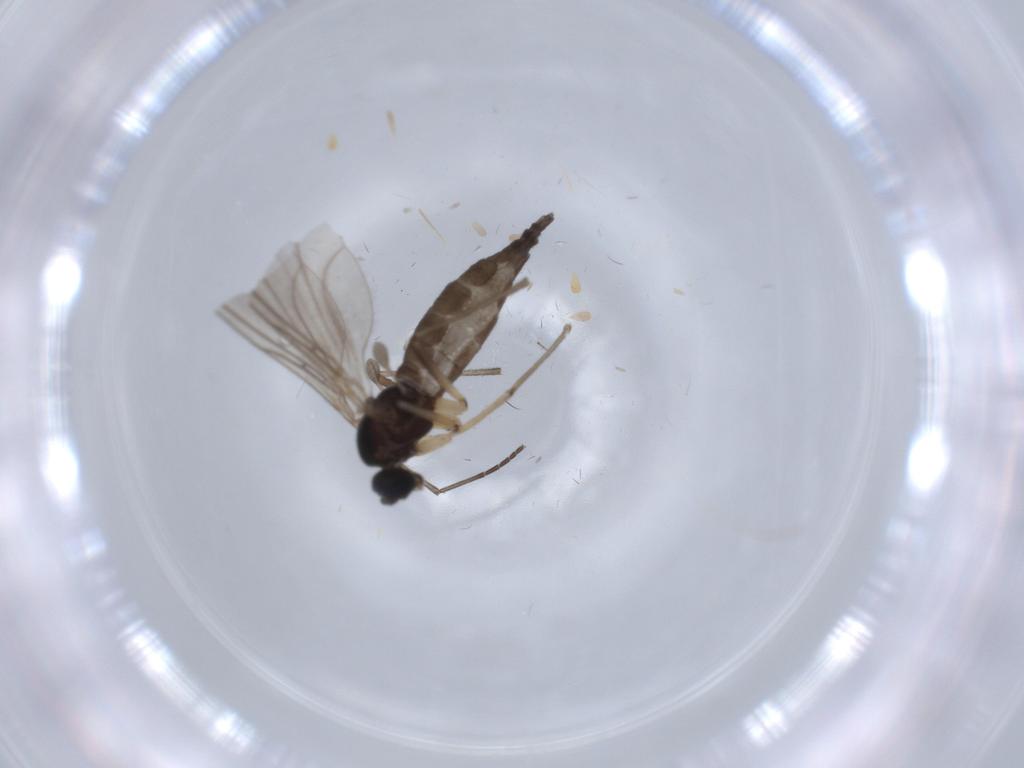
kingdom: Animalia
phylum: Arthropoda
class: Insecta
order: Diptera
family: Sciaridae
